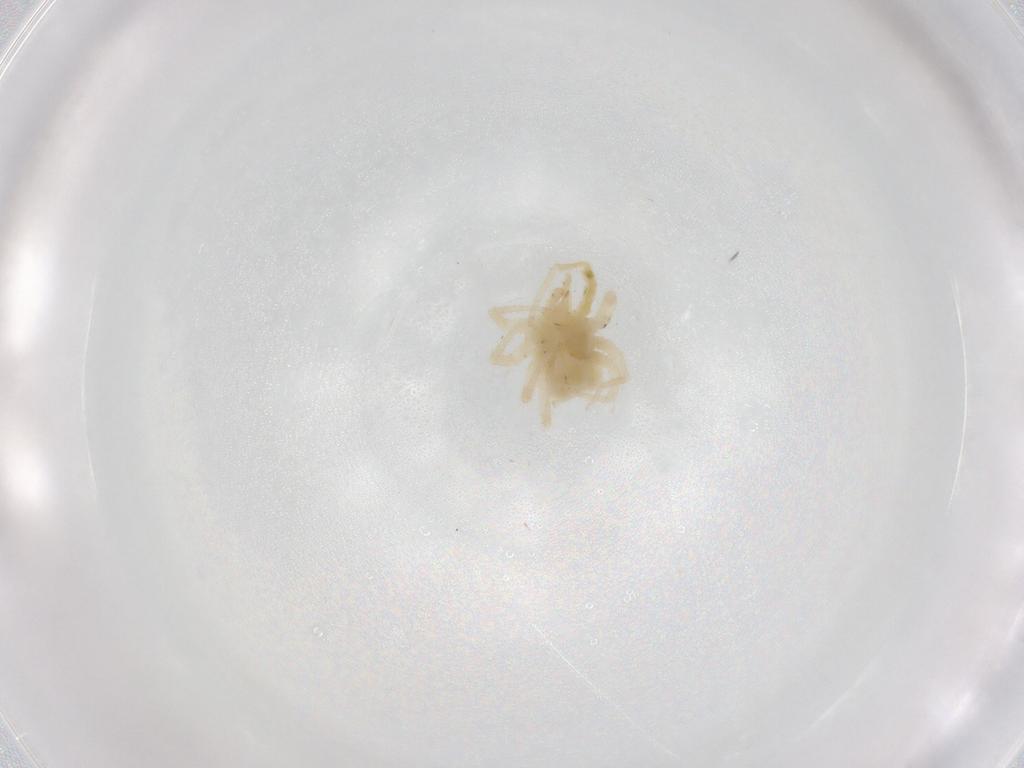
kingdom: Animalia
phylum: Arthropoda
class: Arachnida
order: Trombidiformes
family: Anystidae
